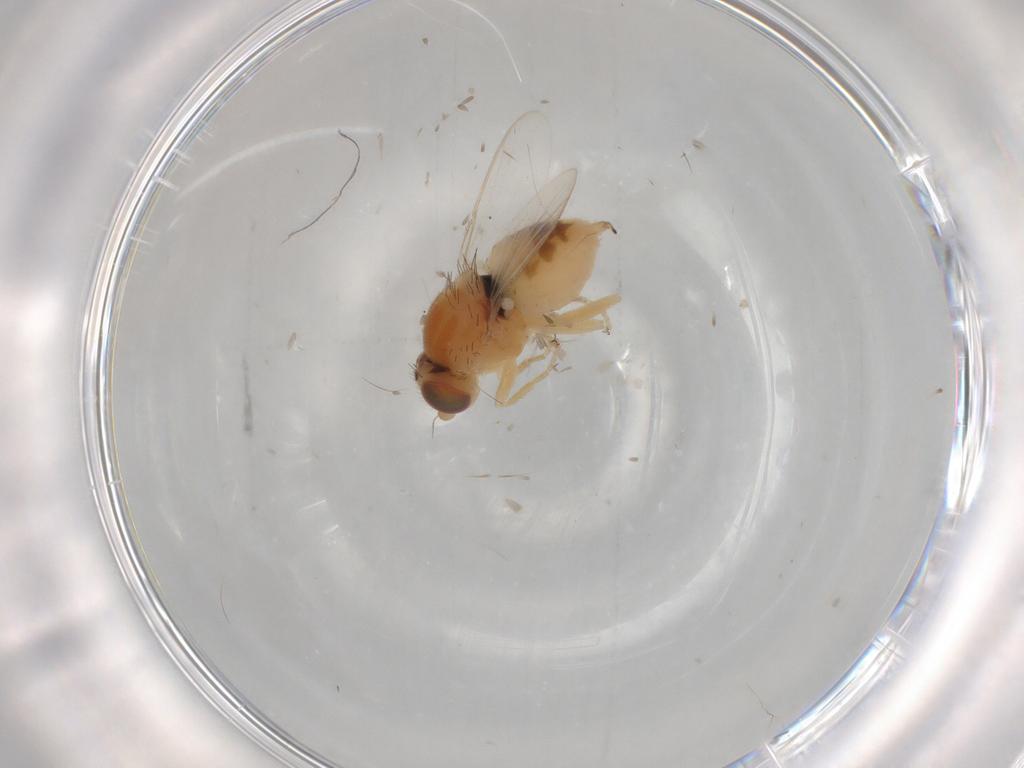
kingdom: Animalia
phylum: Arthropoda
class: Insecta
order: Diptera
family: Chloropidae
